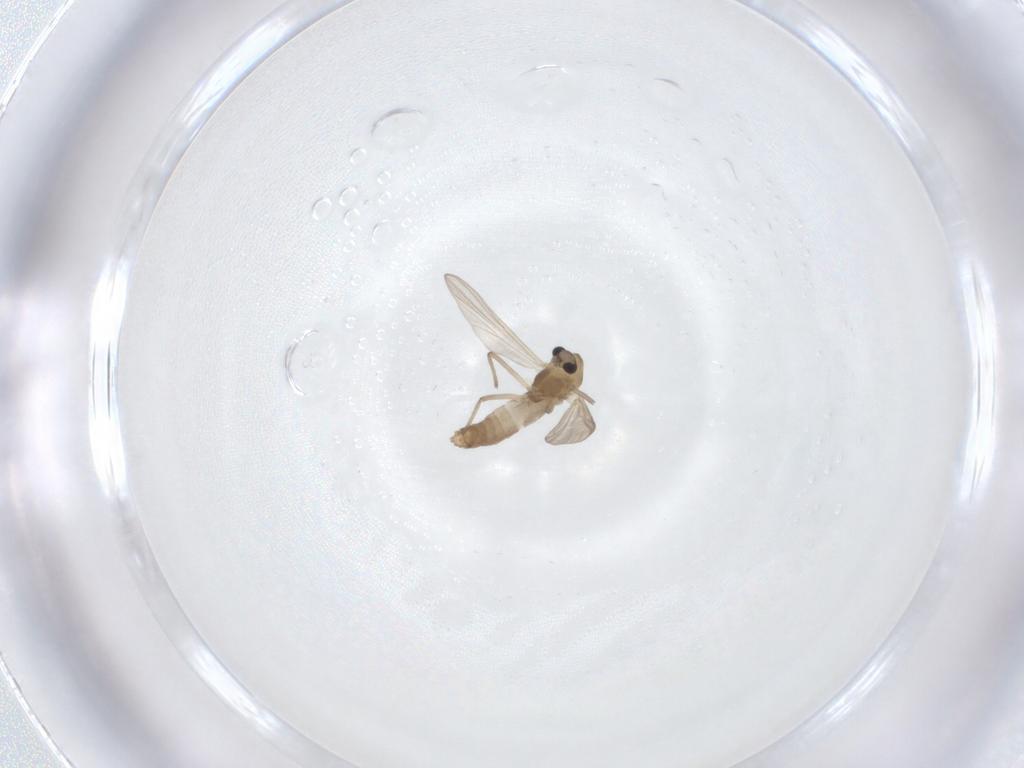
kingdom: Animalia
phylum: Arthropoda
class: Insecta
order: Diptera
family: Chironomidae
